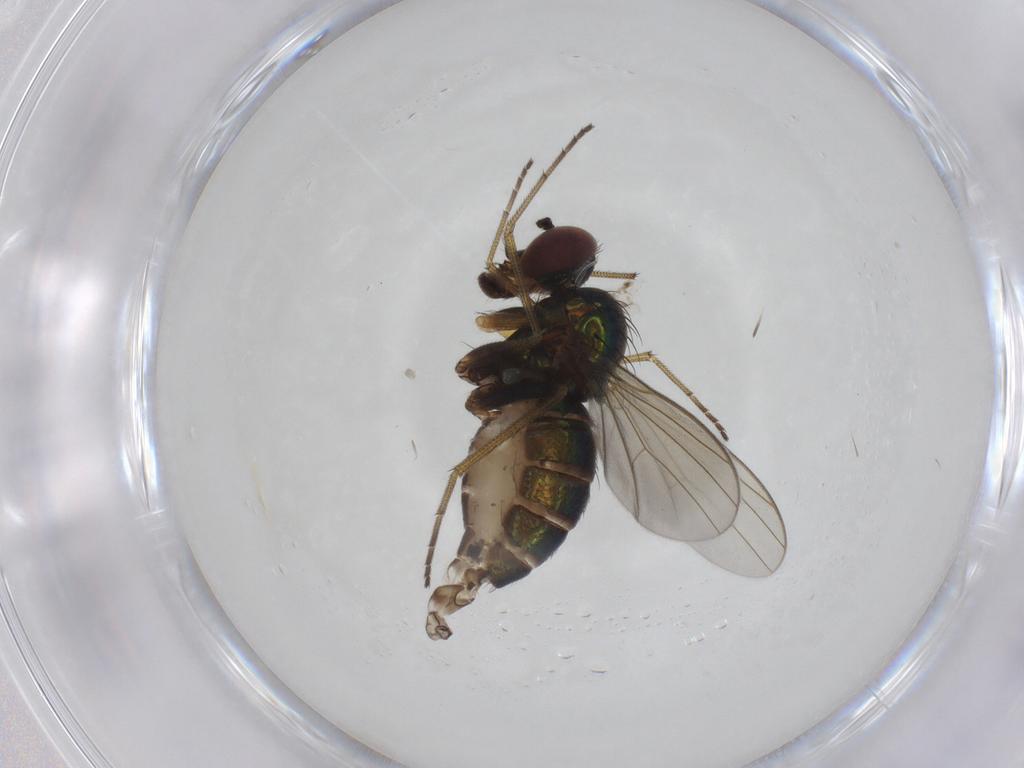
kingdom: Animalia
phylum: Arthropoda
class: Insecta
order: Diptera
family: Dolichopodidae
